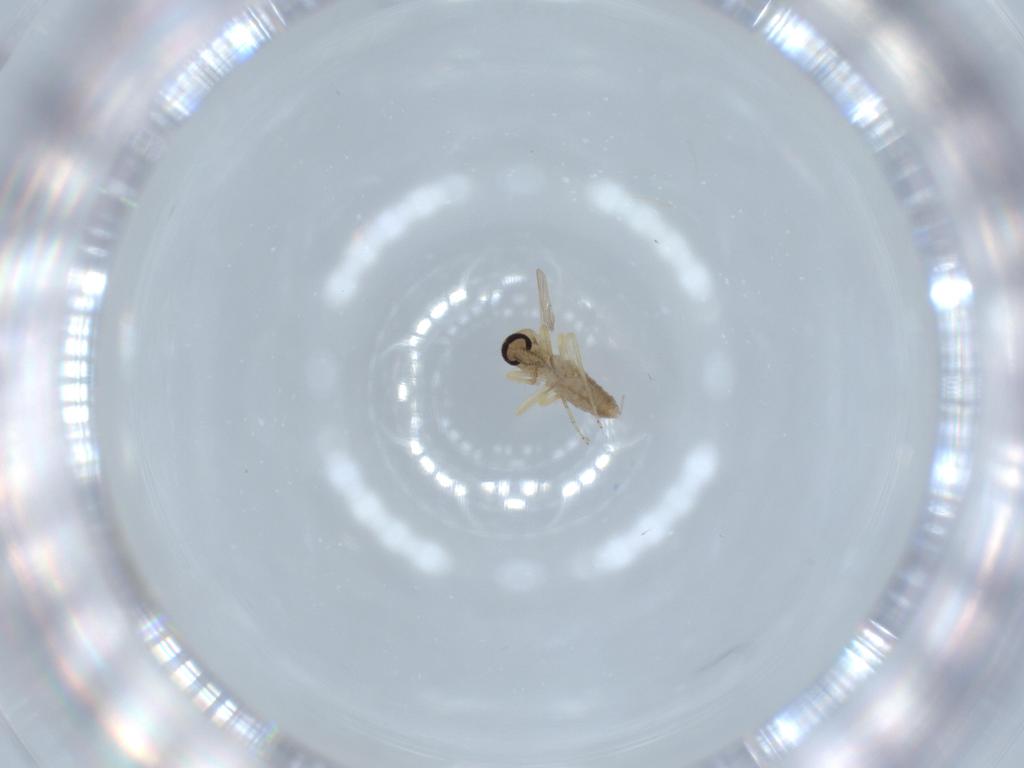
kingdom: Animalia
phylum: Arthropoda
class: Insecta
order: Diptera
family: Ceratopogonidae
